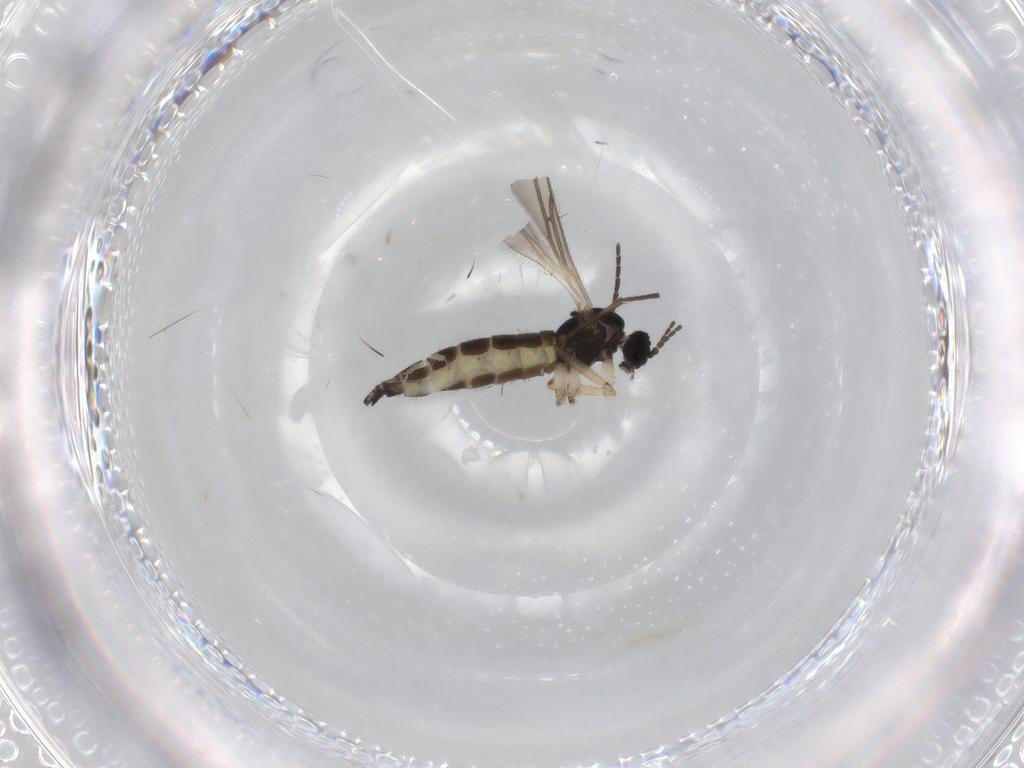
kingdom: Animalia
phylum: Arthropoda
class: Insecta
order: Diptera
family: Sciaridae
